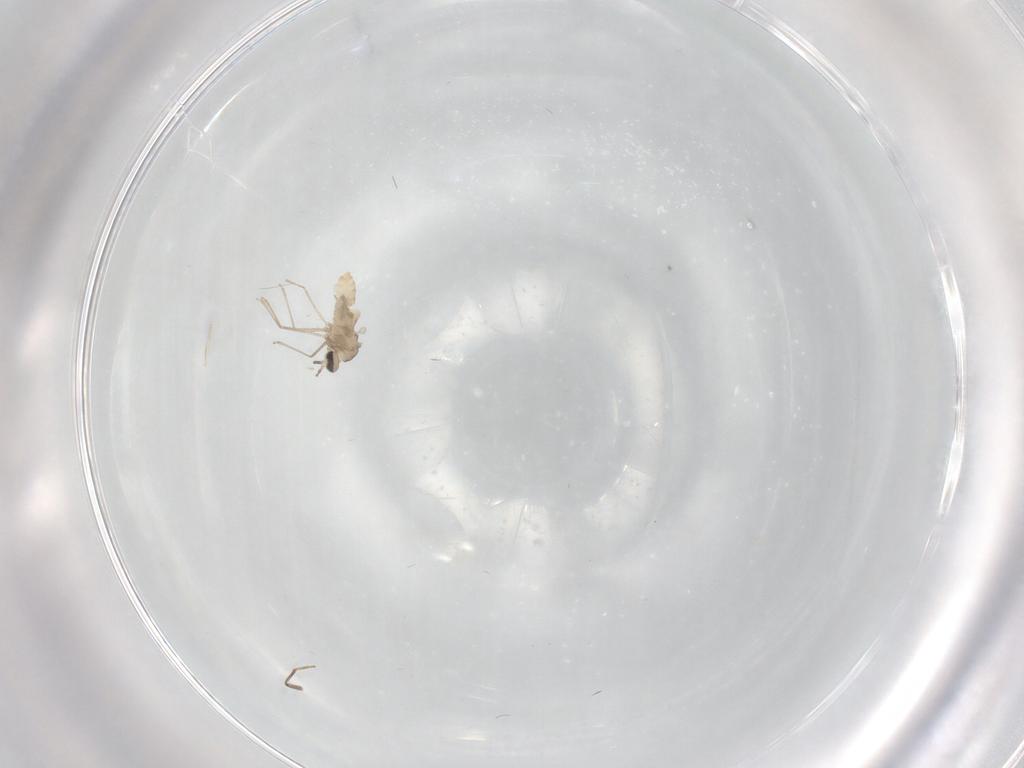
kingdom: Animalia
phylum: Arthropoda
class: Insecta
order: Diptera
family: Cecidomyiidae
